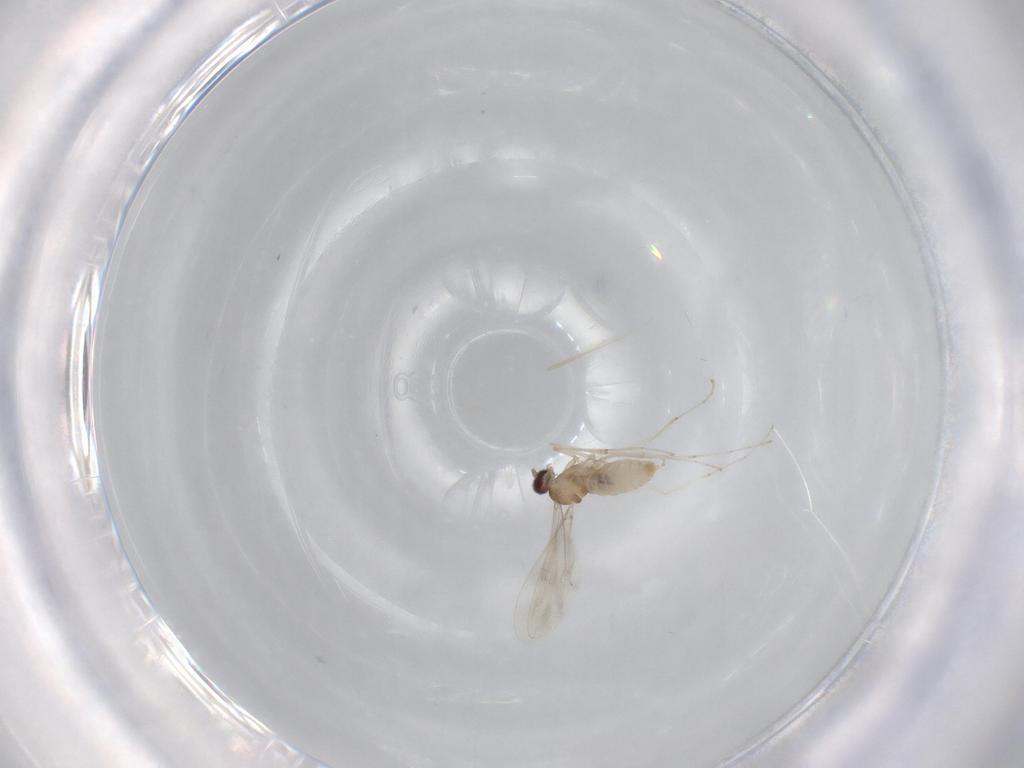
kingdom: Animalia
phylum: Arthropoda
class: Insecta
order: Diptera
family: Cecidomyiidae
